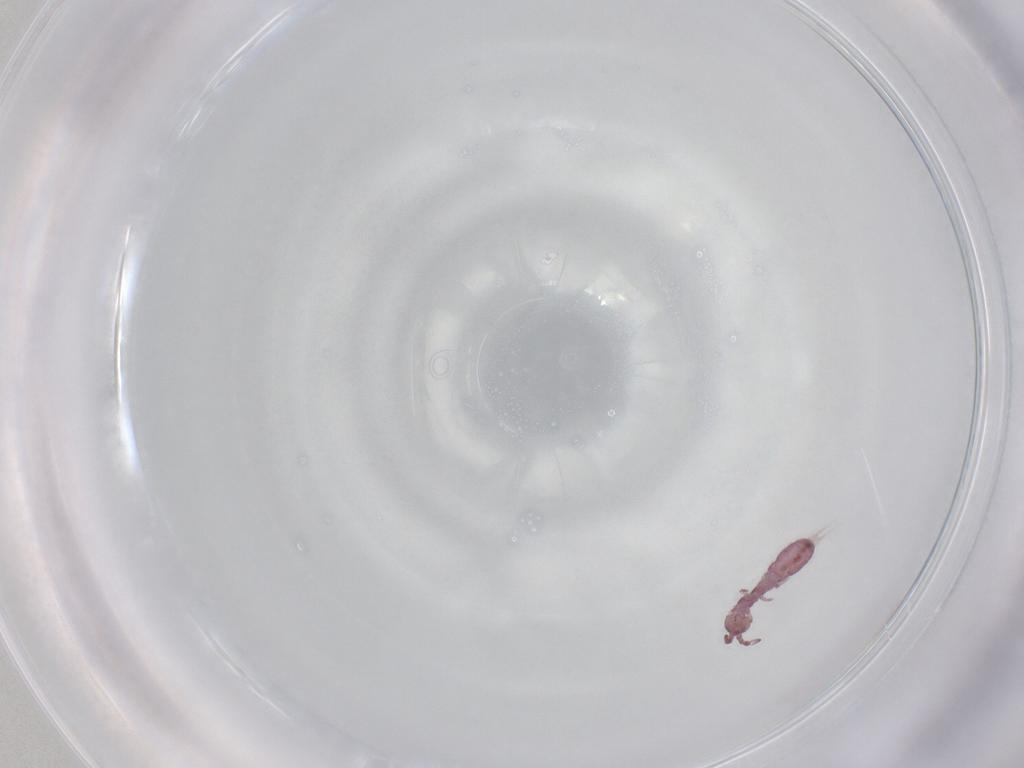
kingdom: Animalia
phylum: Arthropoda
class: Collembola
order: Entomobryomorpha
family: Isotomidae
